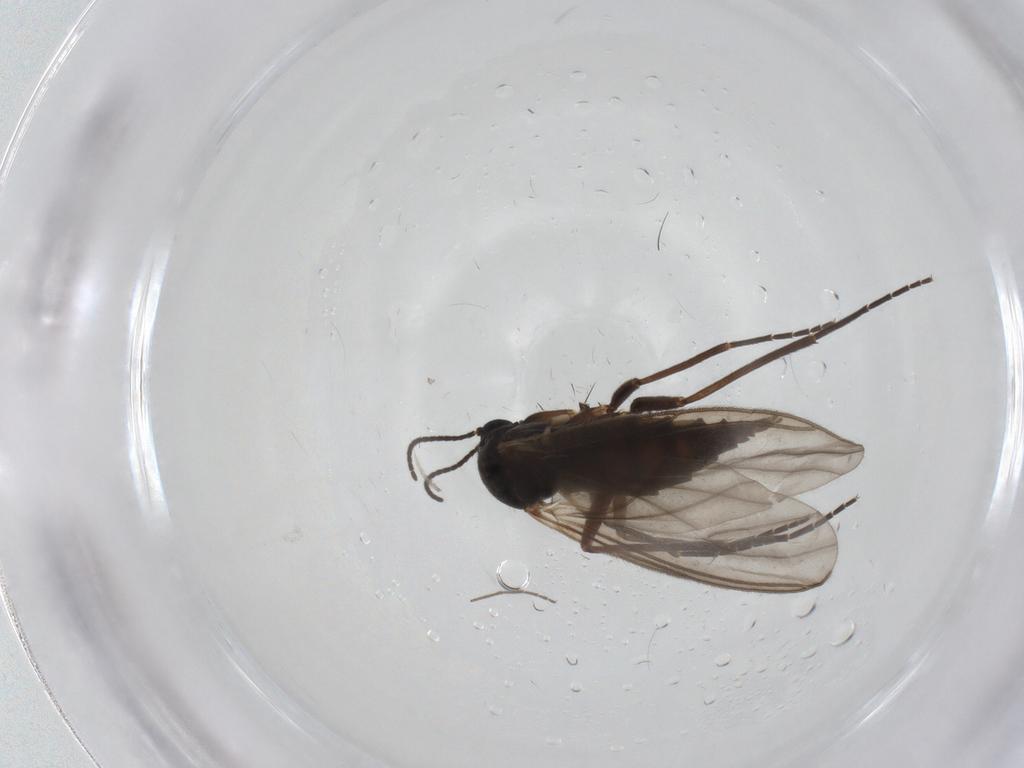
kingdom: Animalia
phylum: Arthropoda
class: Insecta
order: Diptera
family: Sciaridae
